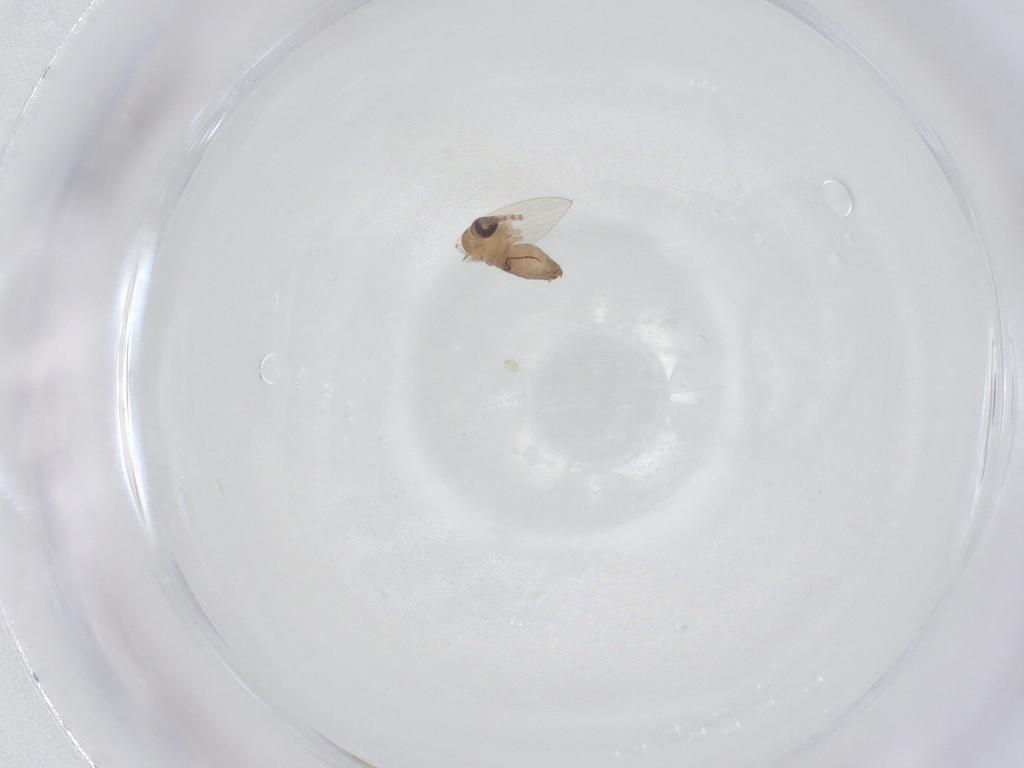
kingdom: Animalia
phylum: Arthropoda
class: Insecta
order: Diptera
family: Psychodidae
